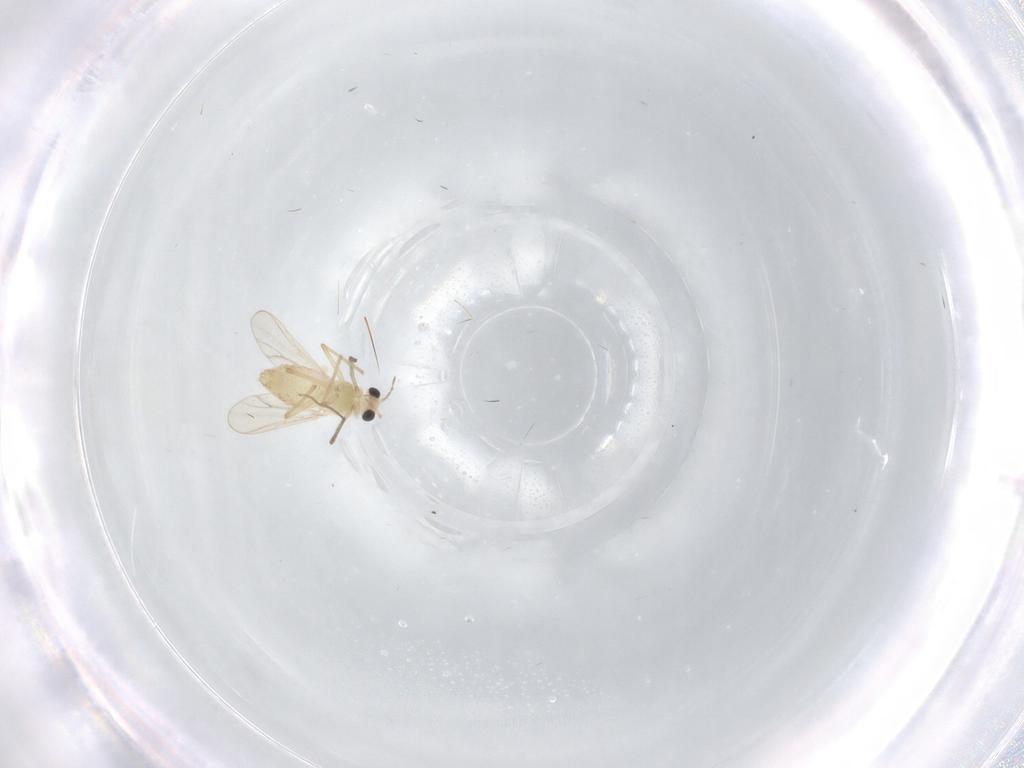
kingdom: Animalia
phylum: Arthropoda
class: Insecta
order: Diptera
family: Chironomidae
